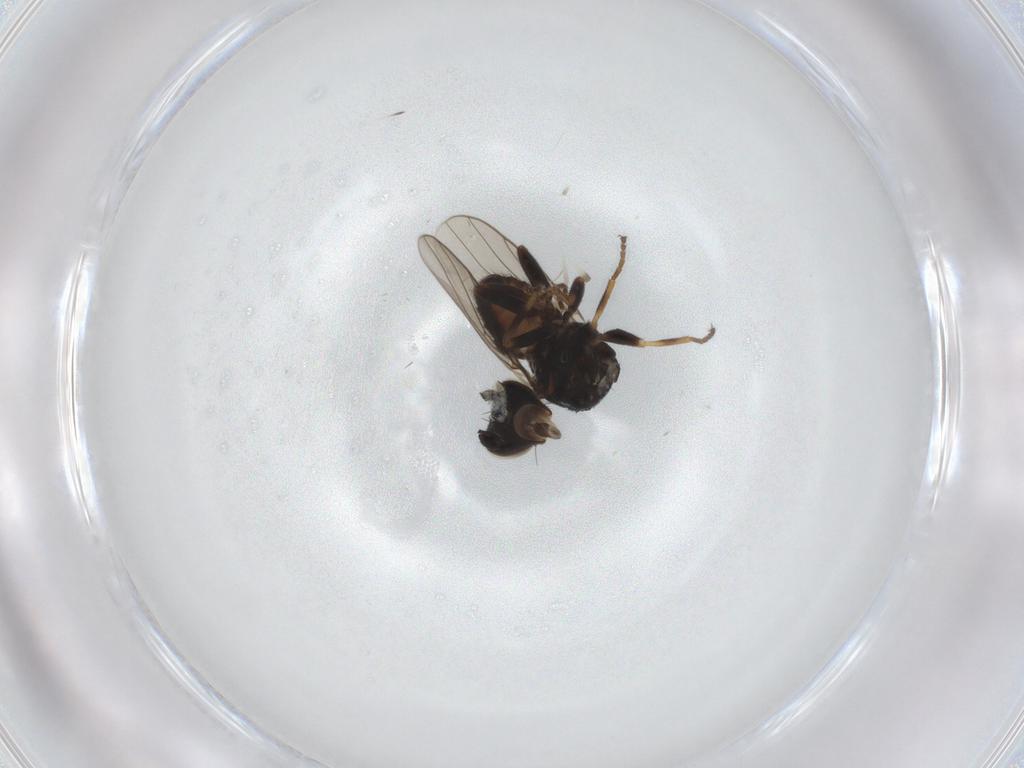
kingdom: Animalia
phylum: Arthropoda
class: Insecta
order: Diptera
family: Chloropidae
